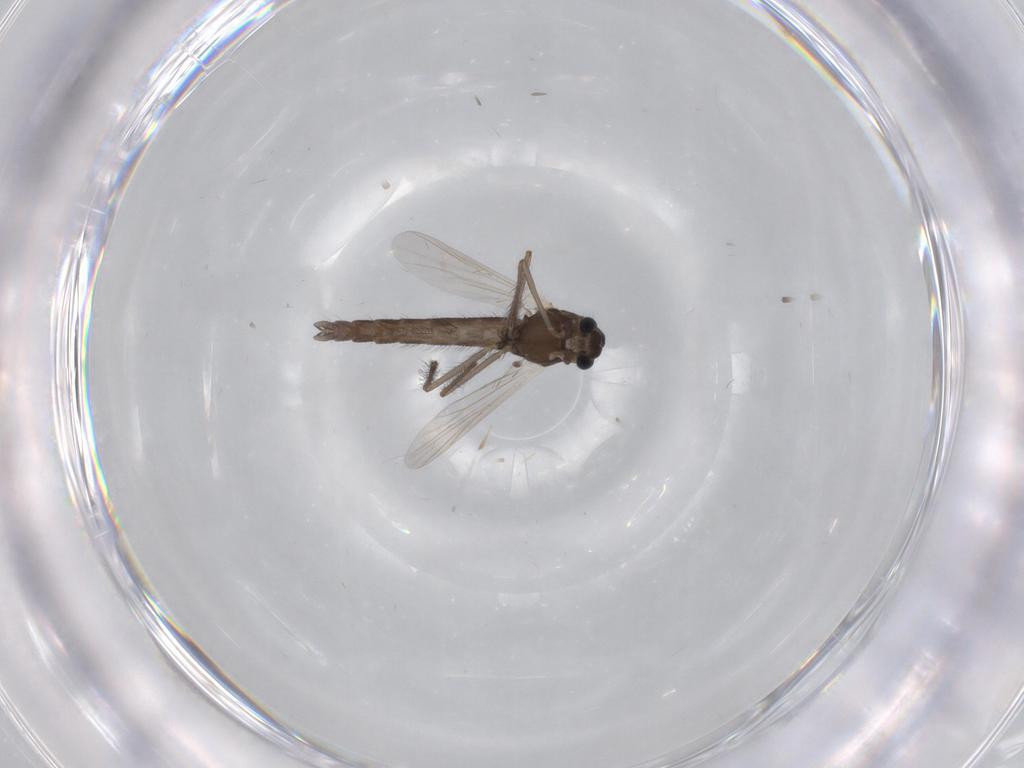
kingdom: Animalia
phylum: Arthropoda
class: Insecta
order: Diptera
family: Chironomidae
